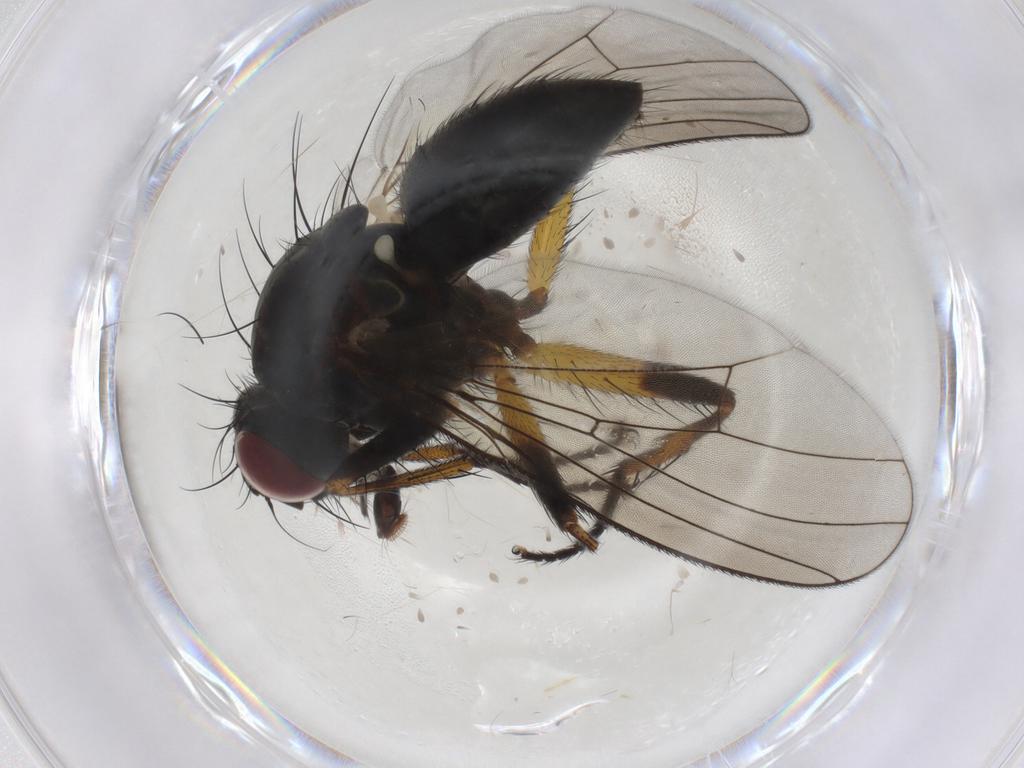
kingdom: Animalia
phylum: Arthropoda
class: Insecta
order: Diptera
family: Muscidae
